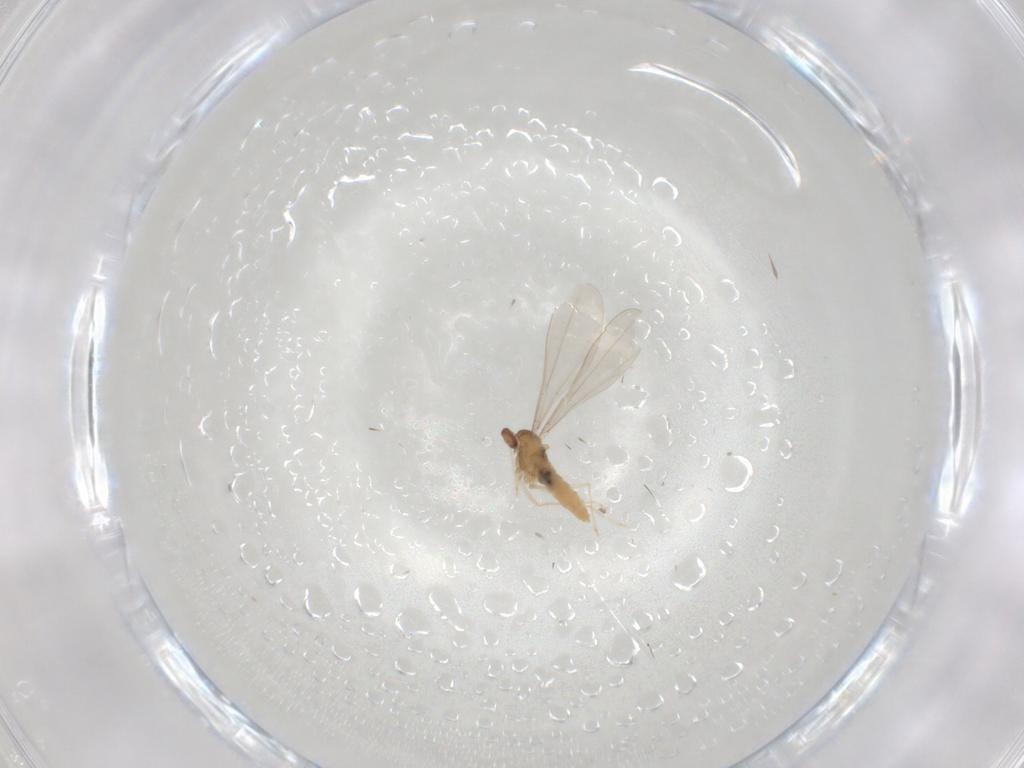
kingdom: Animalia
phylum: Arthropoda
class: Insecta
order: Diptera
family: Cecidomyiidae
